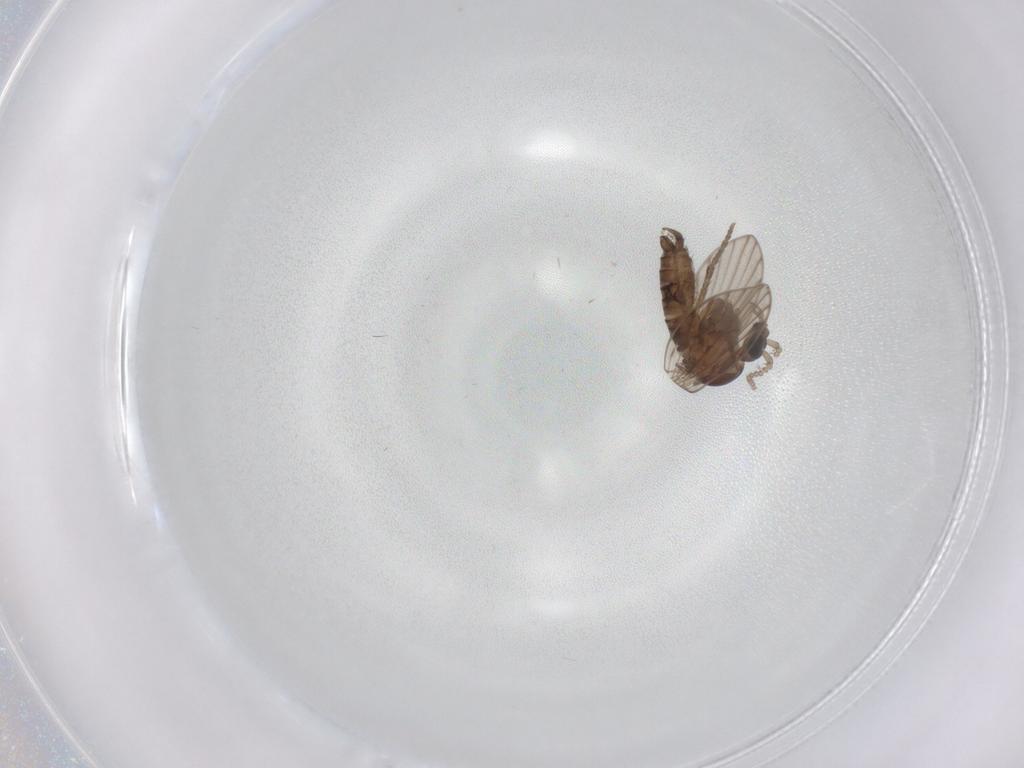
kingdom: Animalia
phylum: Arthropoda
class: Insecta
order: Diptera
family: Psychodidae
